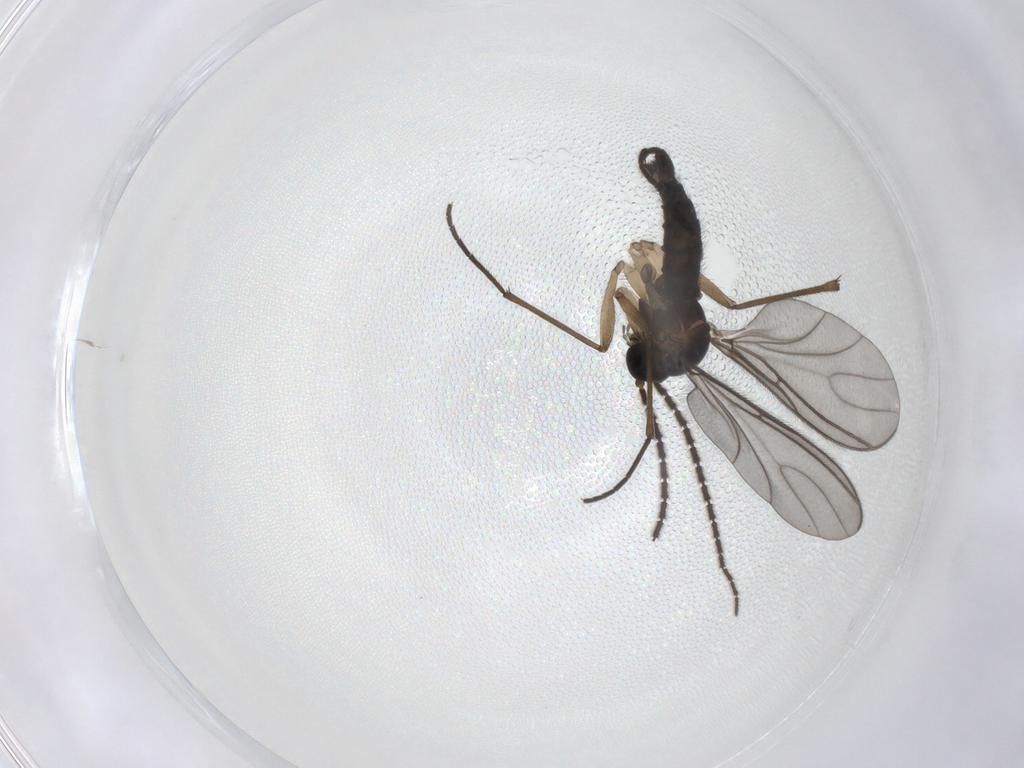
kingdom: Animalia
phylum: Arthropoda
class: Insecta
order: Diptera
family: Sciaridae
